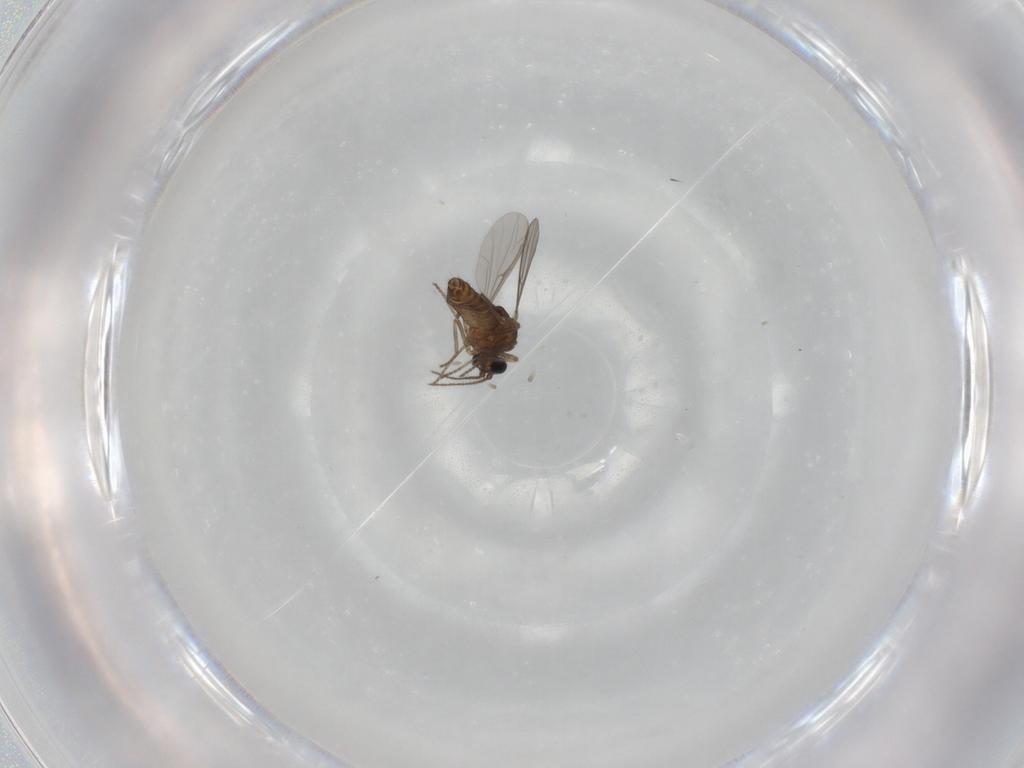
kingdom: Animalia
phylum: Arthropoda
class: Insecta
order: Diptera
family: Ceratopogonidae
